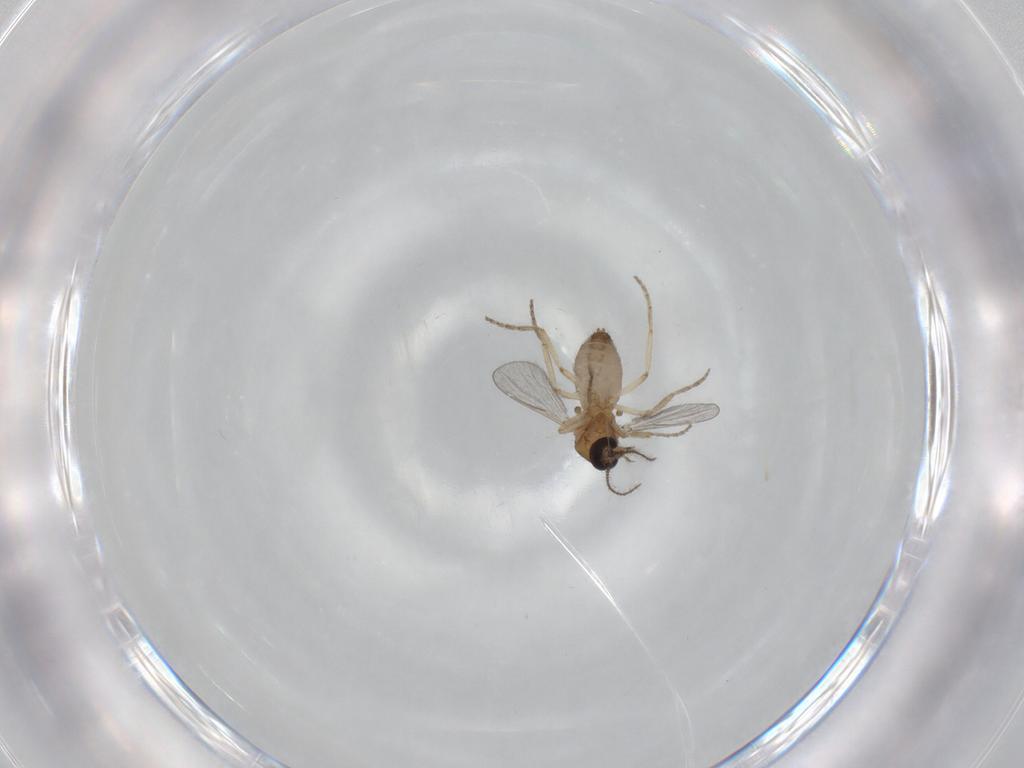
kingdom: Animalia
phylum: Arthropoda
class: Insecta
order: Diptera
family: Ceratopogonidae
